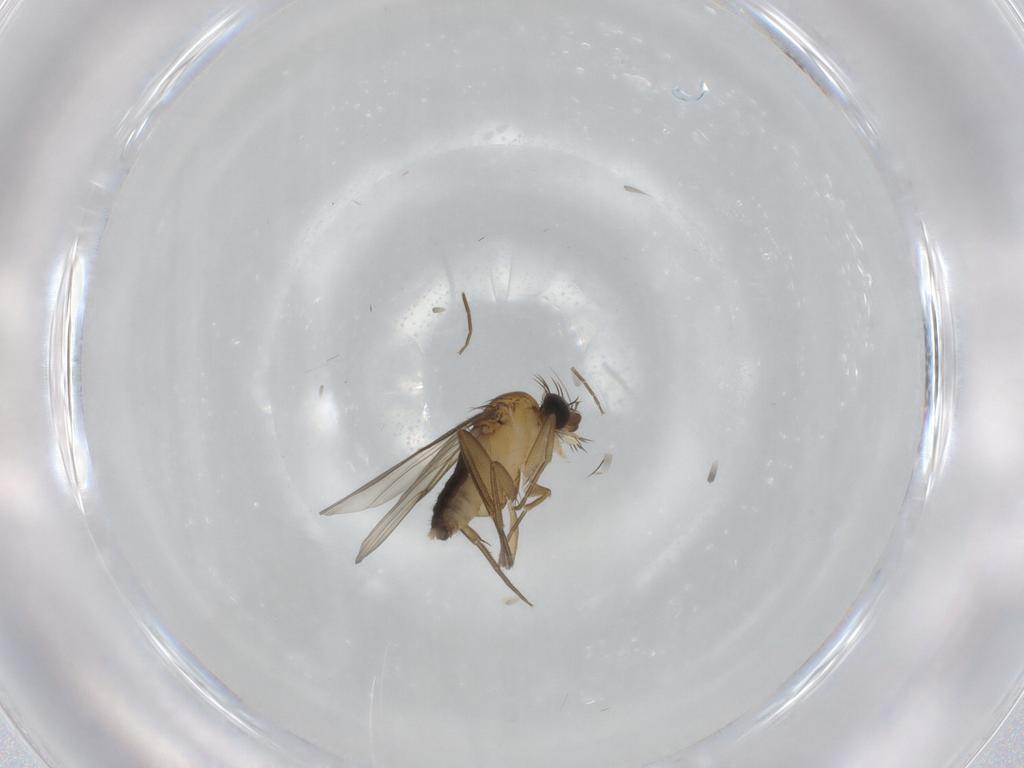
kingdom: Animalia
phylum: Arthropoda
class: Insecta
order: Diptera
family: Phoridae
